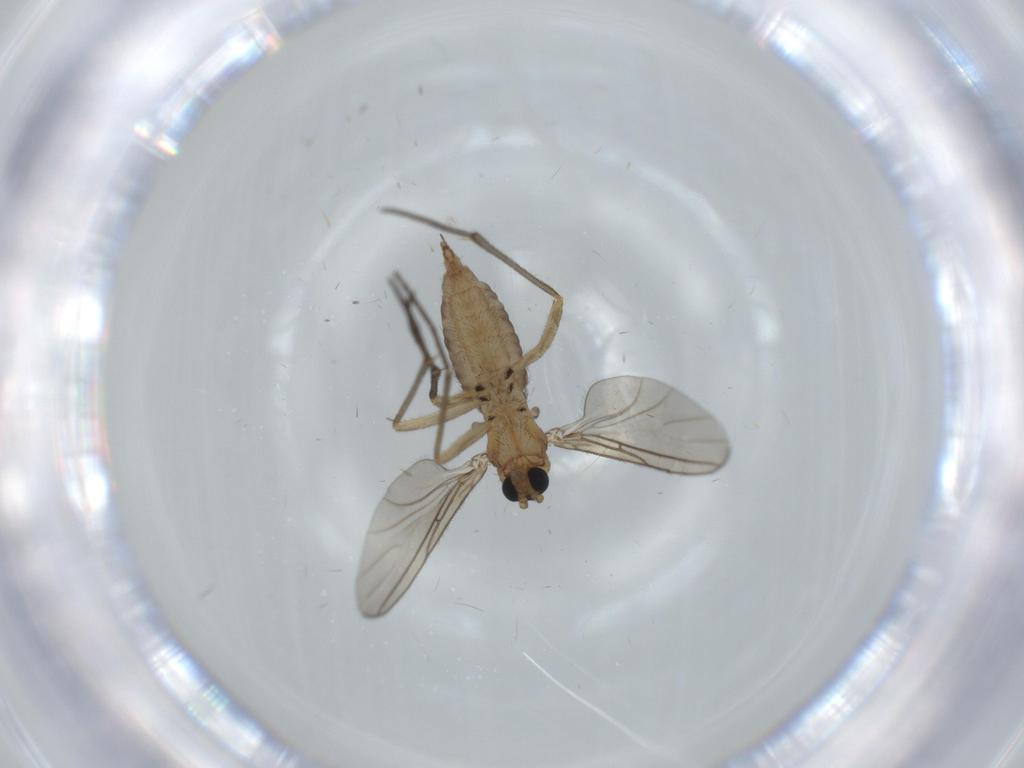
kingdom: Animalia
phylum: Arthropoda
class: Insecta
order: Diptera
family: Sciaridae
